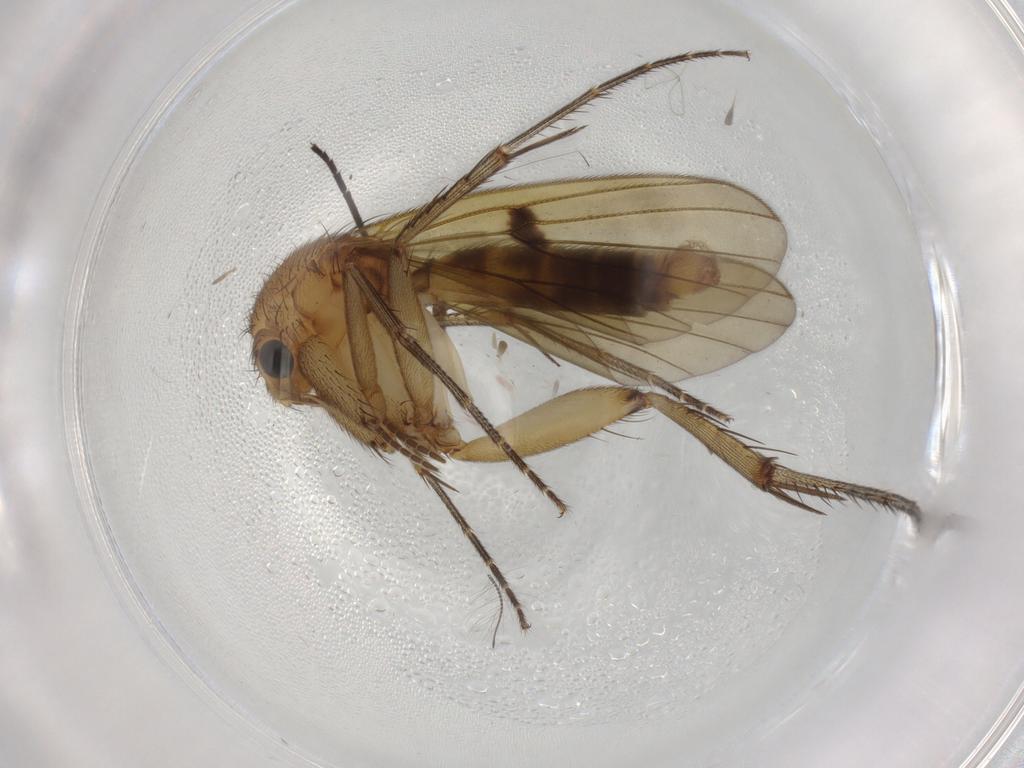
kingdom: Animalia
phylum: Arthropoda
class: Insecta
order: Diptera
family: Mycetophilidae
